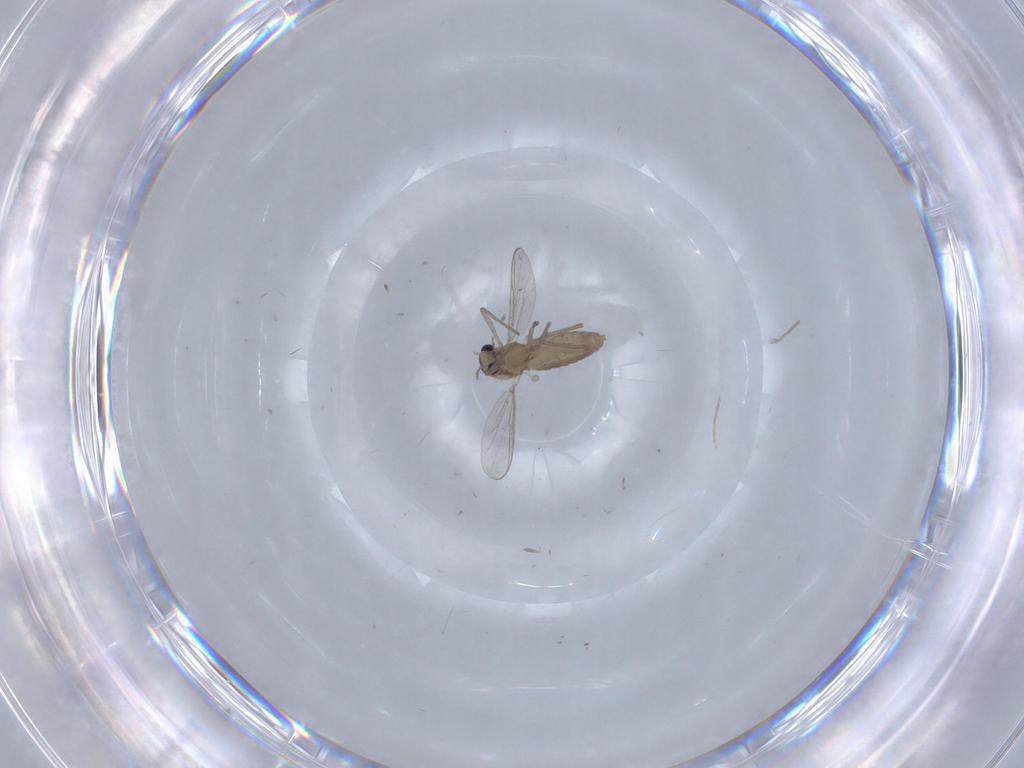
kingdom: Animalia
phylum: Arthropoda
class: Insecta
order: Diptera
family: Chironomidae
